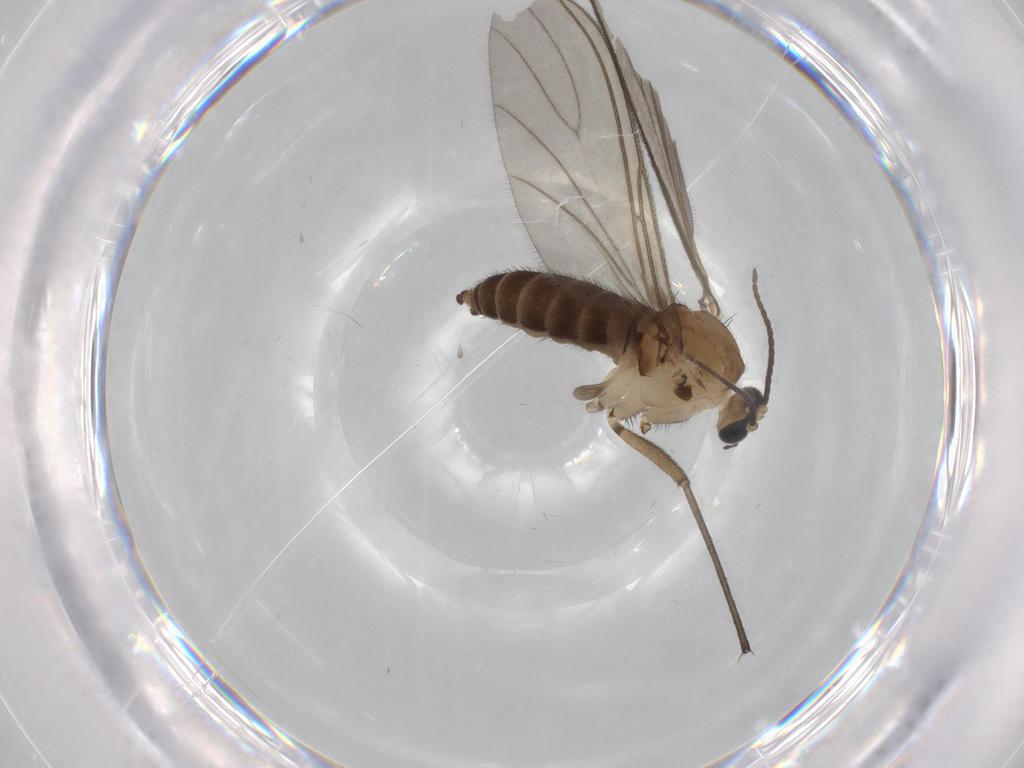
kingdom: Animalia
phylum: Arthropoda
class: Insecta
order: Diptera
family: Sciaridae
